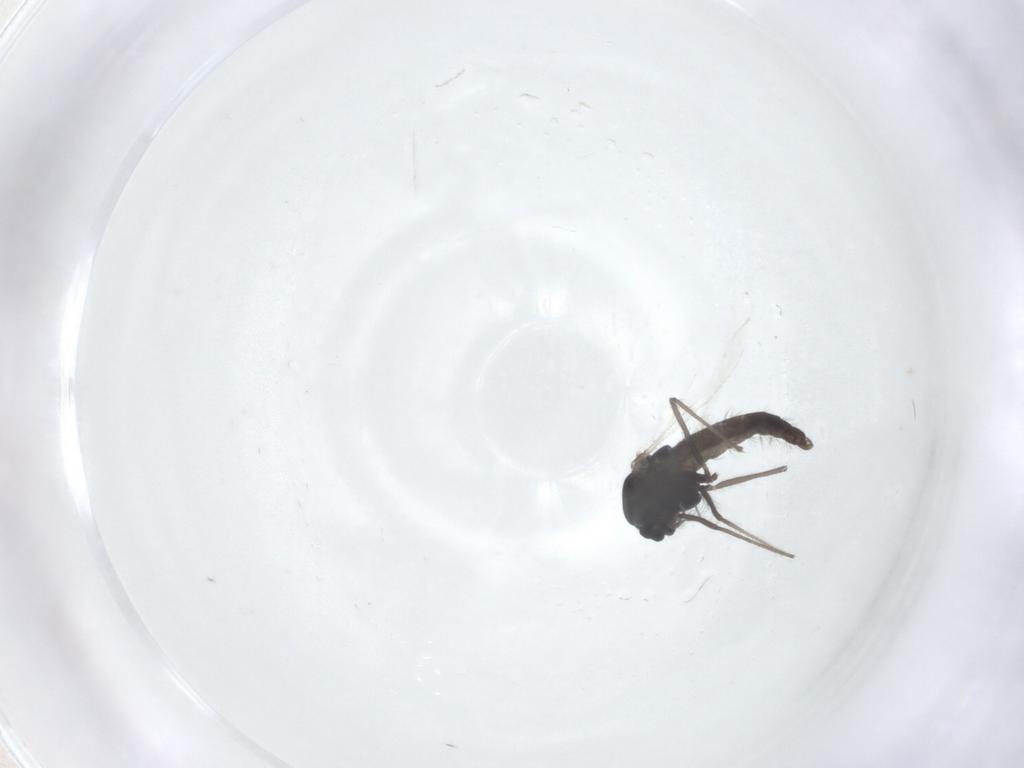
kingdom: Animalia
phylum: Arthropoda
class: Insecta
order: Diptera
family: Chironomidae
